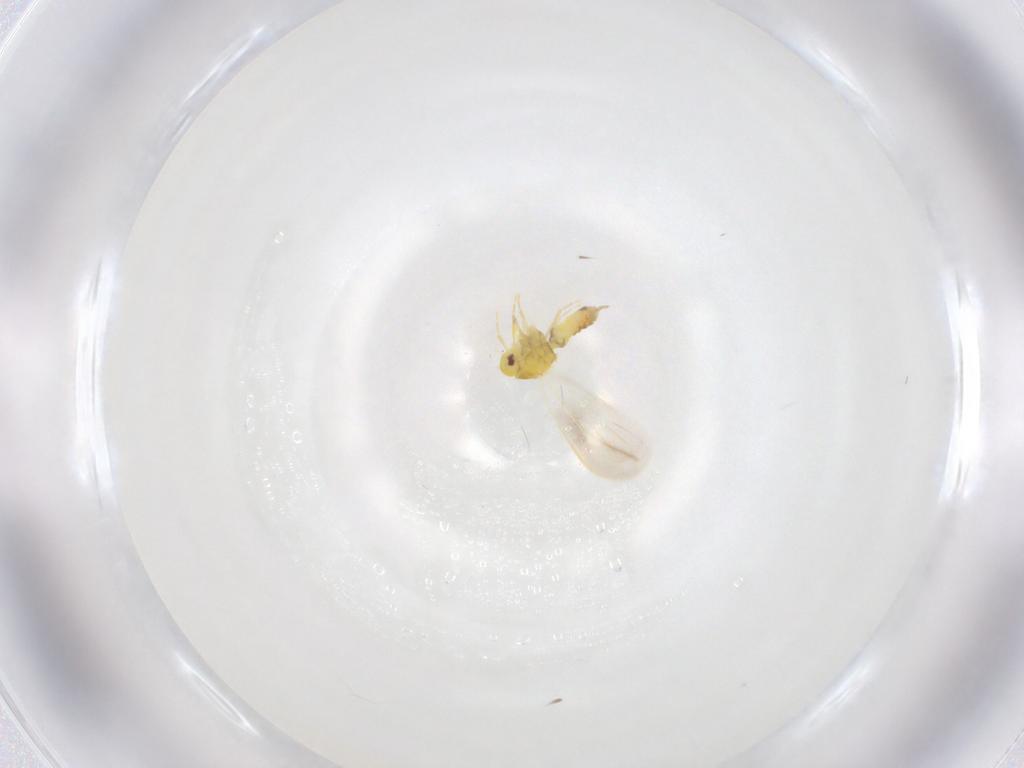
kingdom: Animalia
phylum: Arthropoda
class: Insecta
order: Hemiptera
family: Aleyrodidae
